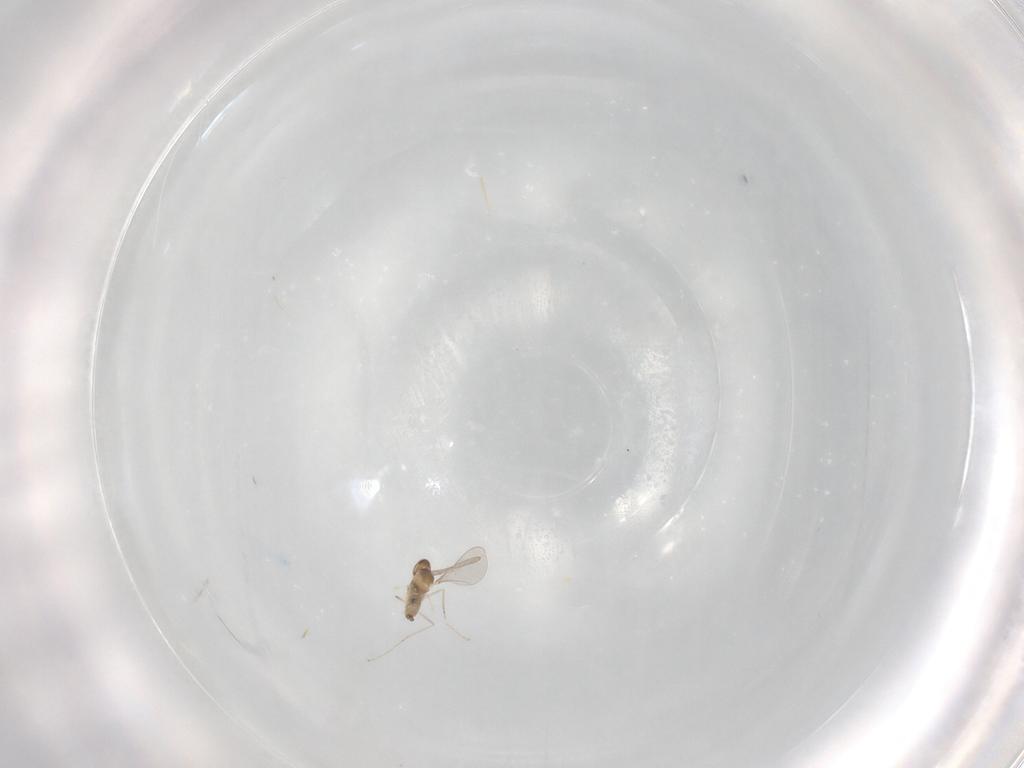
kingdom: Animalia
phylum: Arthropoda
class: Insecta
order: Diptera
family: Cecidomyiidae
